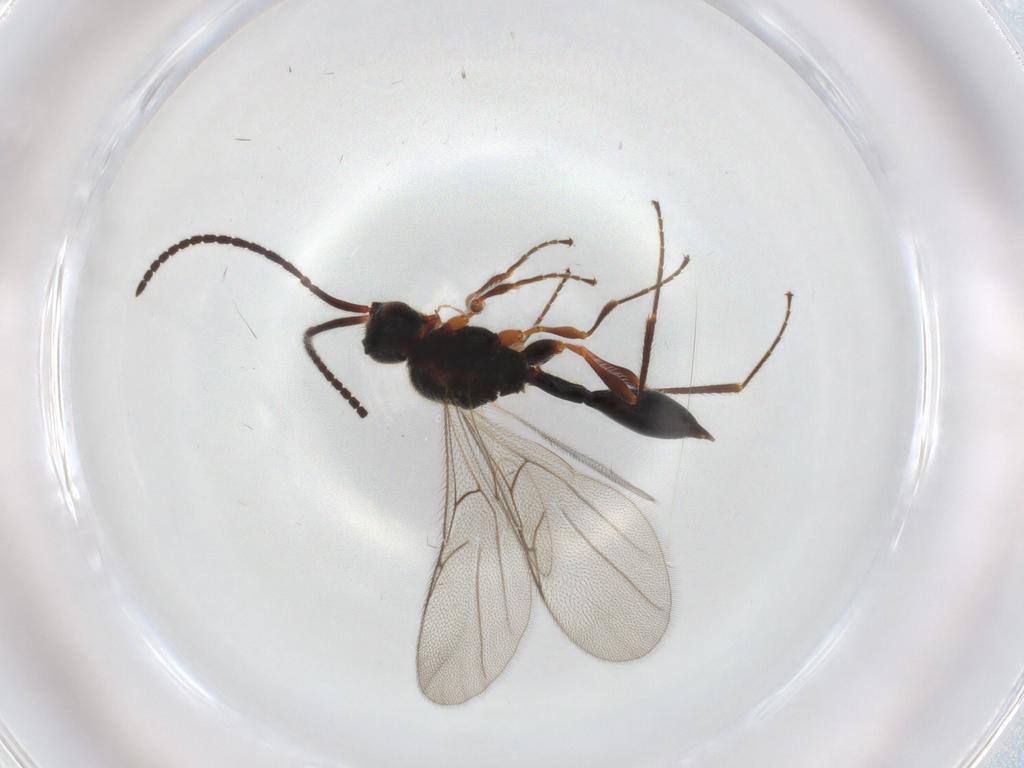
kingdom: Animalia
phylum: Arthropoda
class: Insecta
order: Hymenoptera
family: Diapriidae
